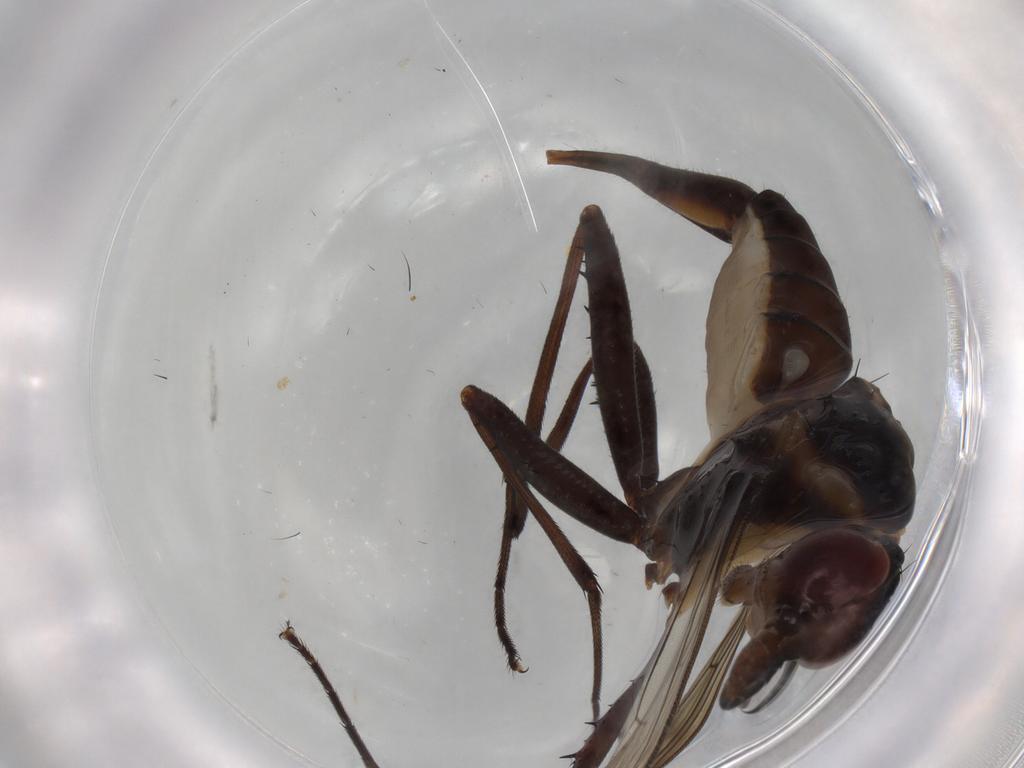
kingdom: Animalia
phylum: Arthropoda
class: Insecta
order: Diptera
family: Neriidae
